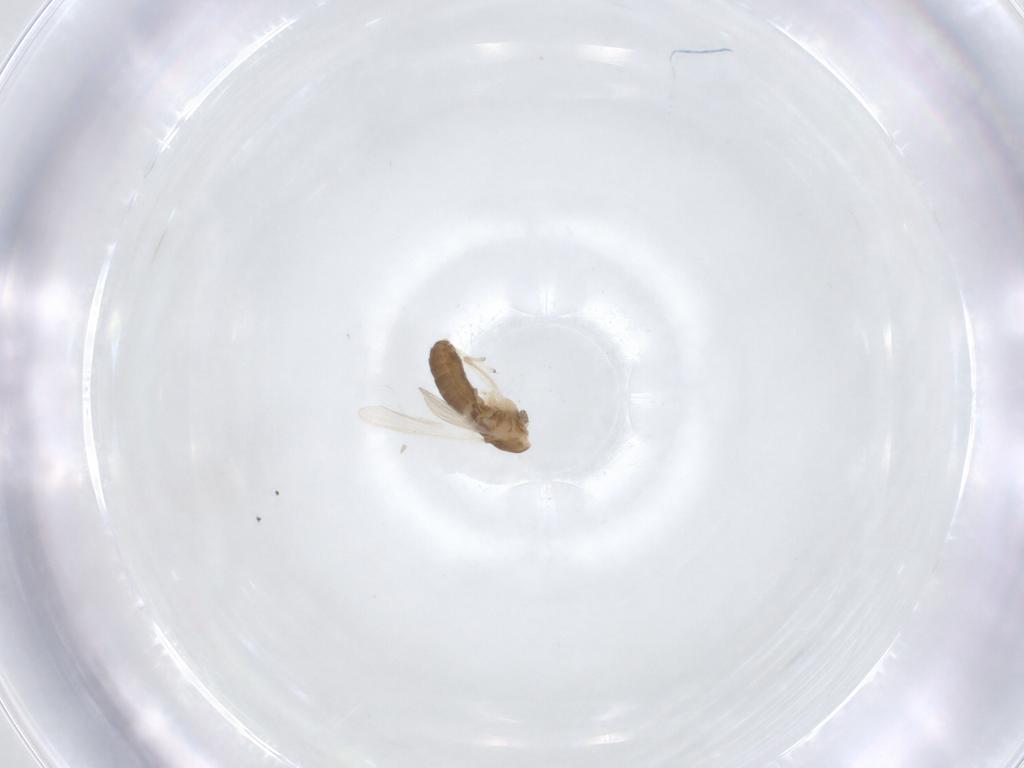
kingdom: Animalia
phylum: Arthropoda
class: Insecta
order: Diptera
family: Chironomidae
